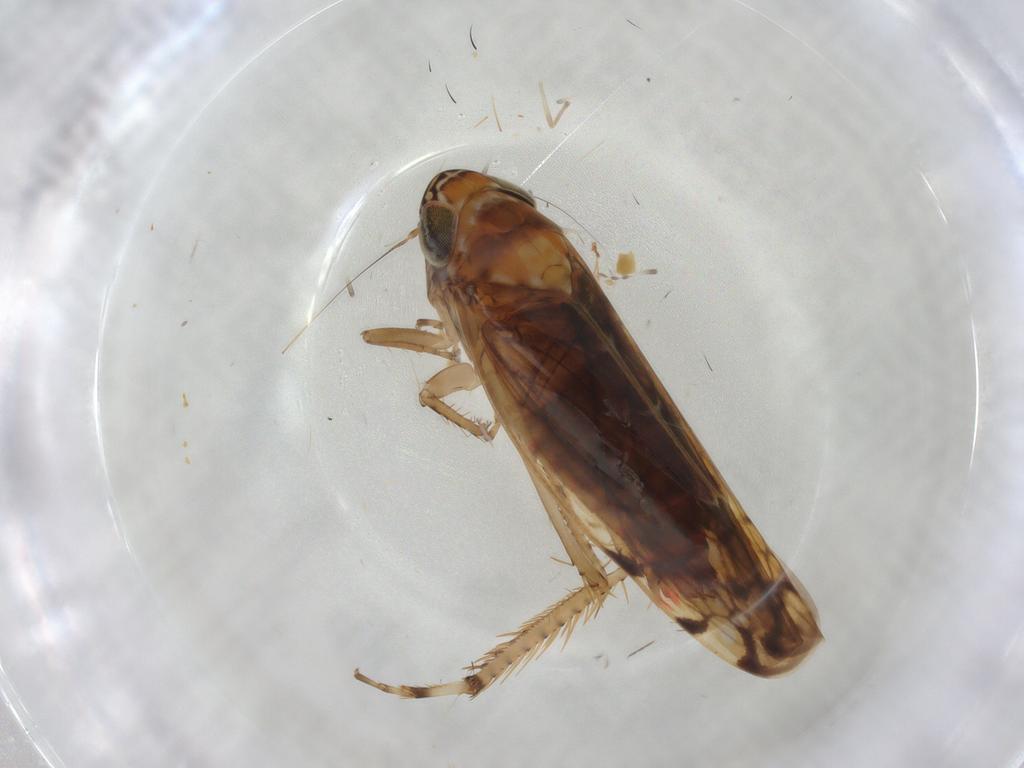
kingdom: Animalia
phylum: Arthropoda
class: Insecta
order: Hemiptera
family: Cicadellidae
